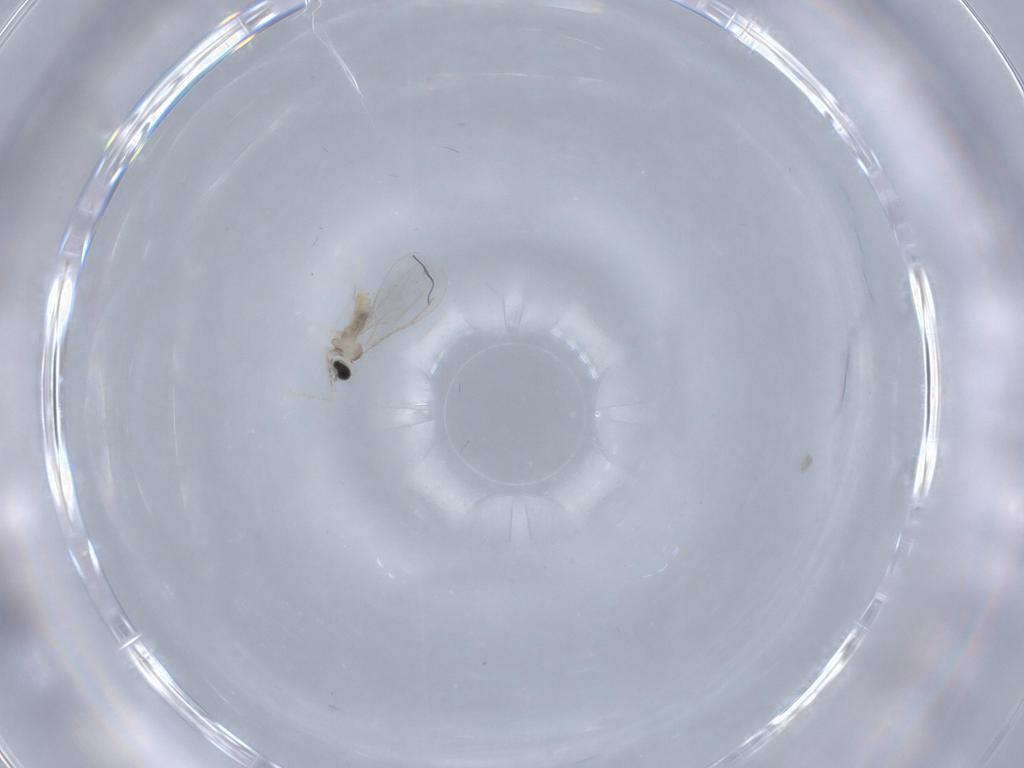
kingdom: Animalia
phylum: Arthropoda
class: Insecta
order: Diptera
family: Chironomidae
